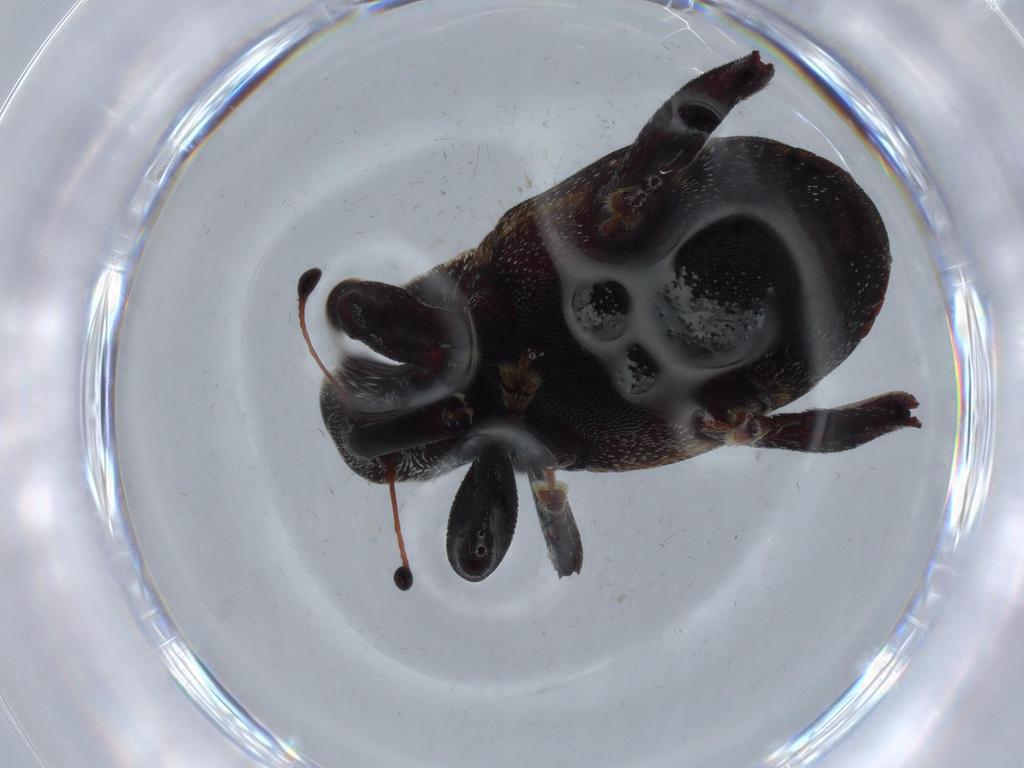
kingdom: Animalia
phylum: Arthropoda
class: Insecta
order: Coleoptera
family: Curculionidae
